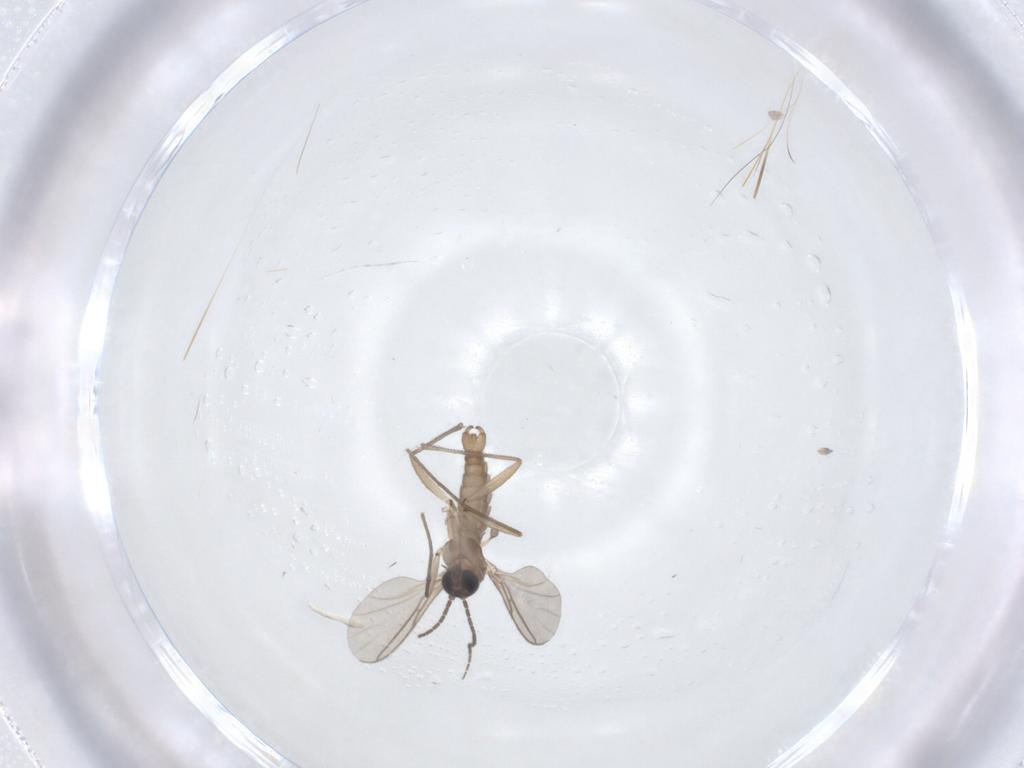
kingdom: Animalia
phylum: Arthropoda
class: Insecta
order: Diptera
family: Sciaridae
